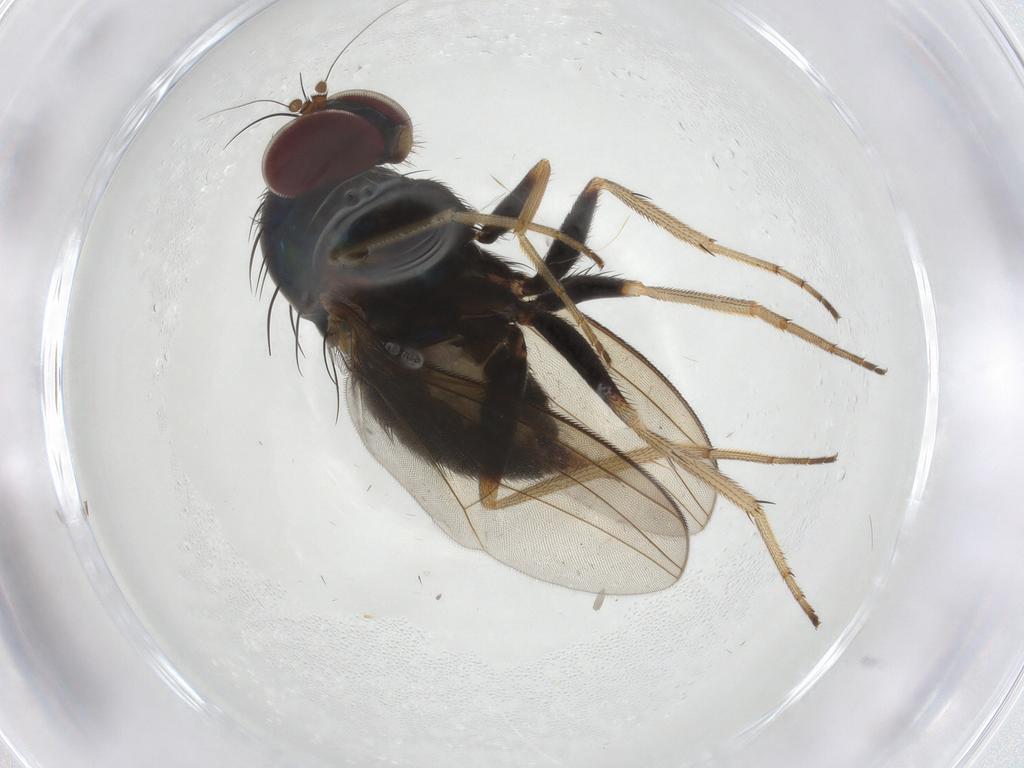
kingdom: Animalia
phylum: Arthropoda
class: Insecta
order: Diptera
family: Dolichopodidae
